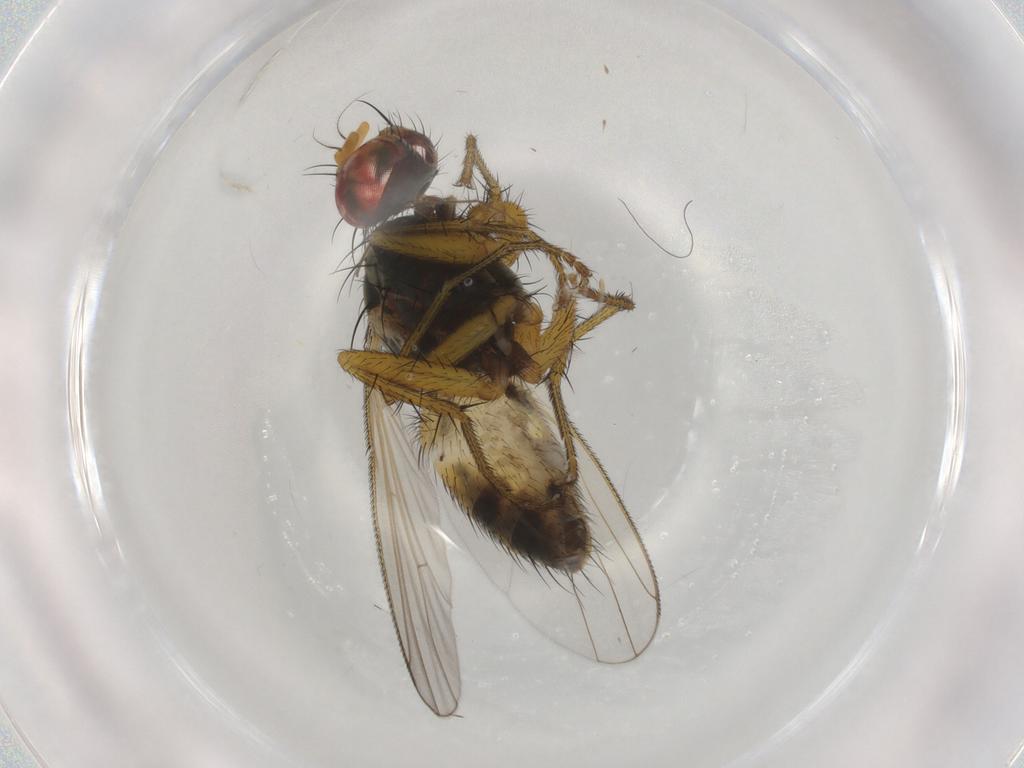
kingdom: Animalia
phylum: Arthropoda
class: Insecta
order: Diptera
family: Muscidae
